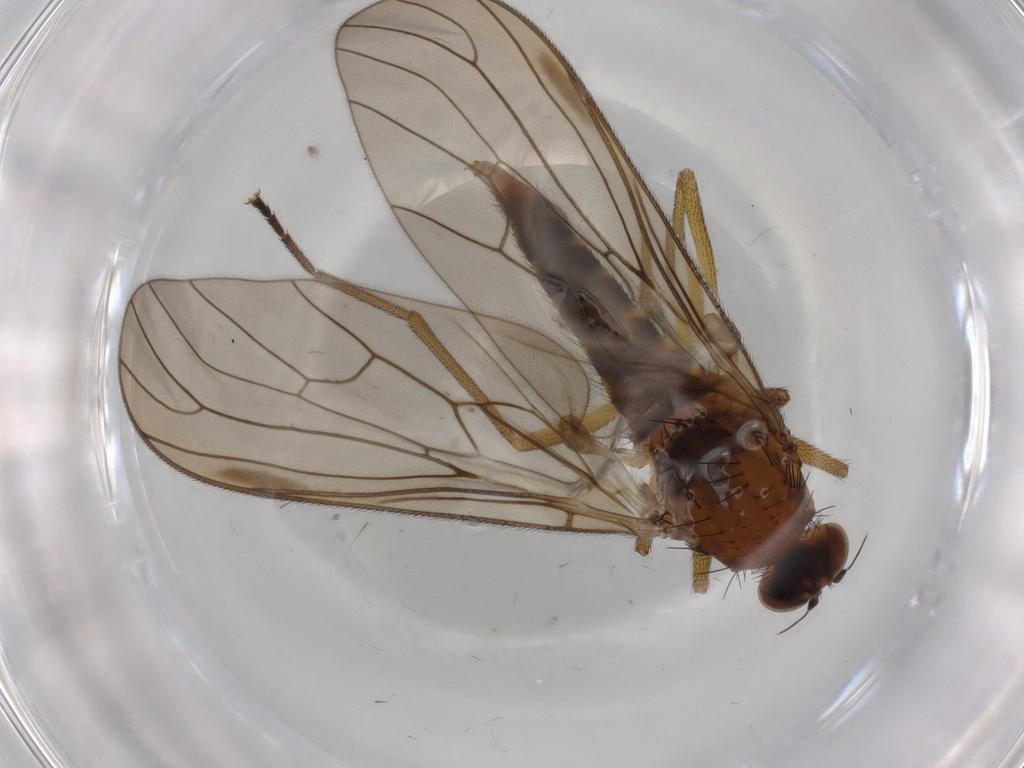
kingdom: Animalia
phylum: Arthropoda
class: Insecta
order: Diptera
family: Brachystomatidae
